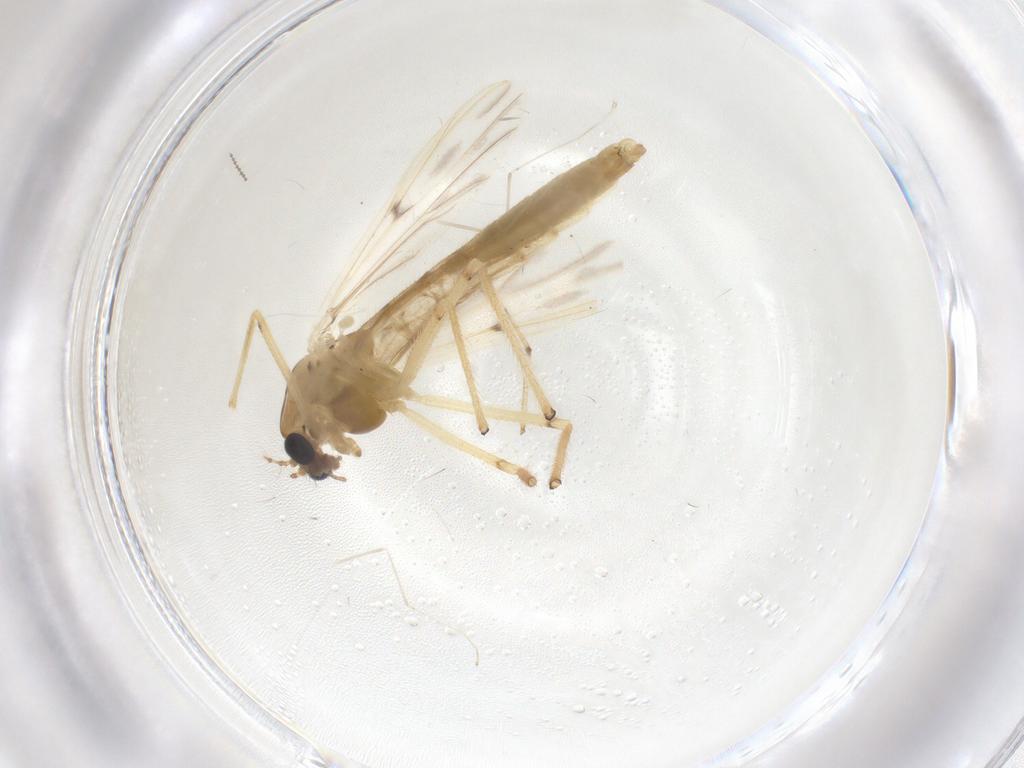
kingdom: Animalia
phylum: Arthropoda
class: Insecta
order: Diptera
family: Chironomidae
